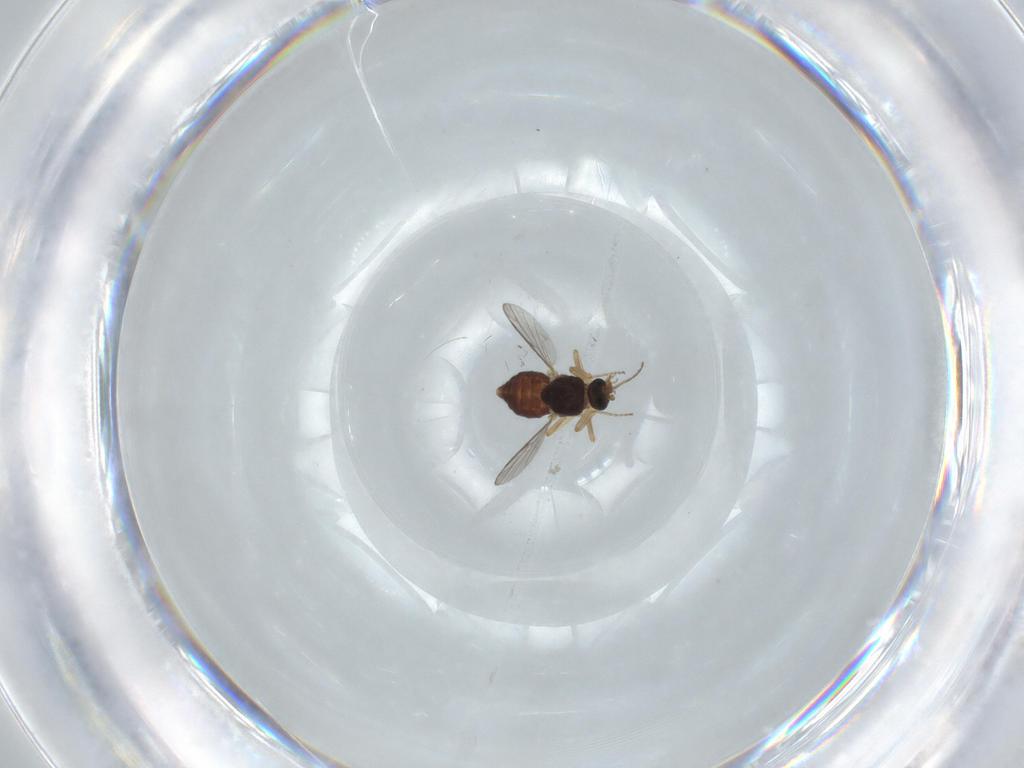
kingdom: Animalia
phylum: Arthropoda
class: Insecta
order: Diptera
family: Ceratopogonidae
